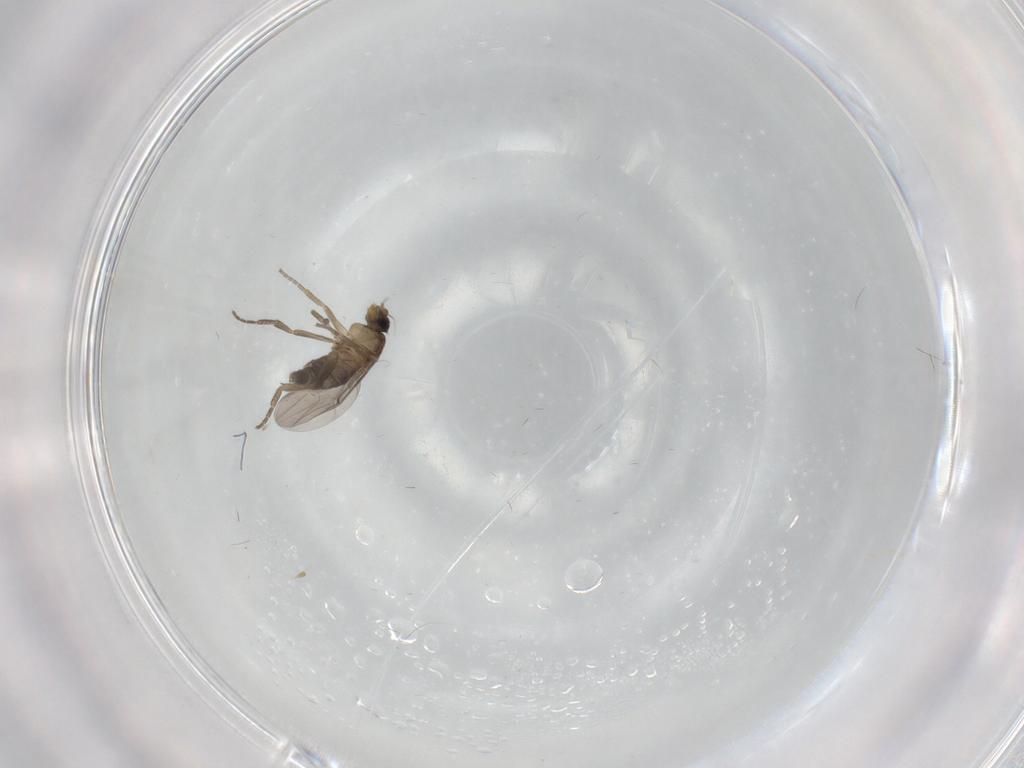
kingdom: Animalia
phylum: Arthropoda
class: Insecta
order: Diptera
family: Phoridae
